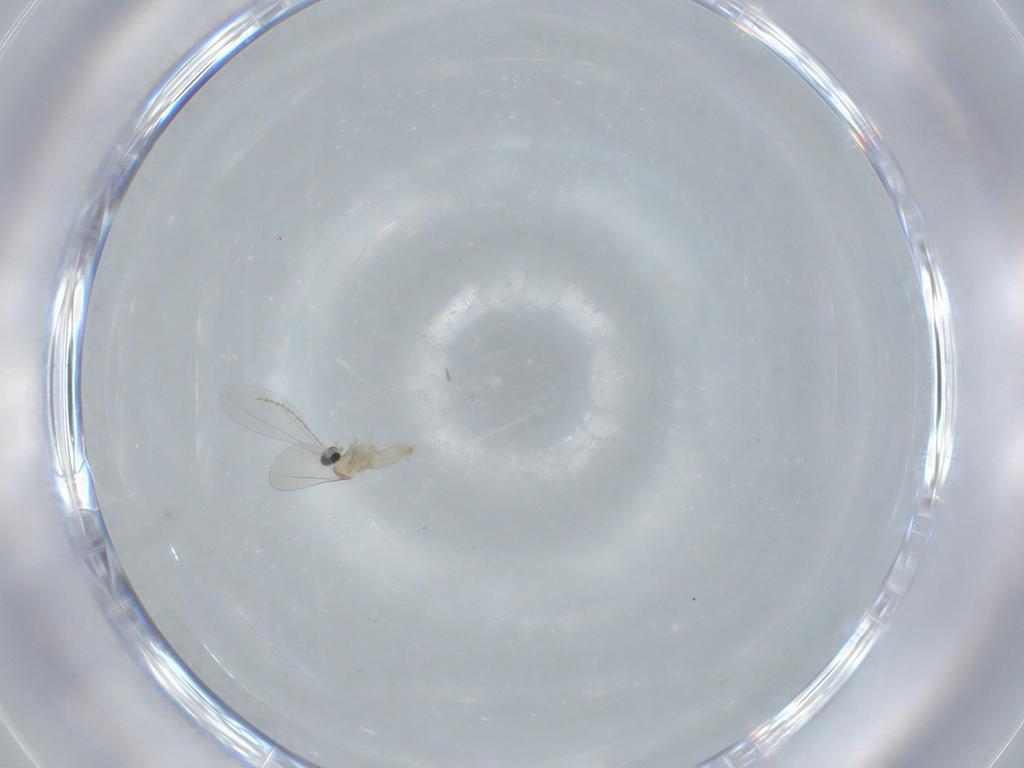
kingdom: Animalia
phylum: Arthropoda
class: Insecta
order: Diptera
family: Cecidomyiidae
